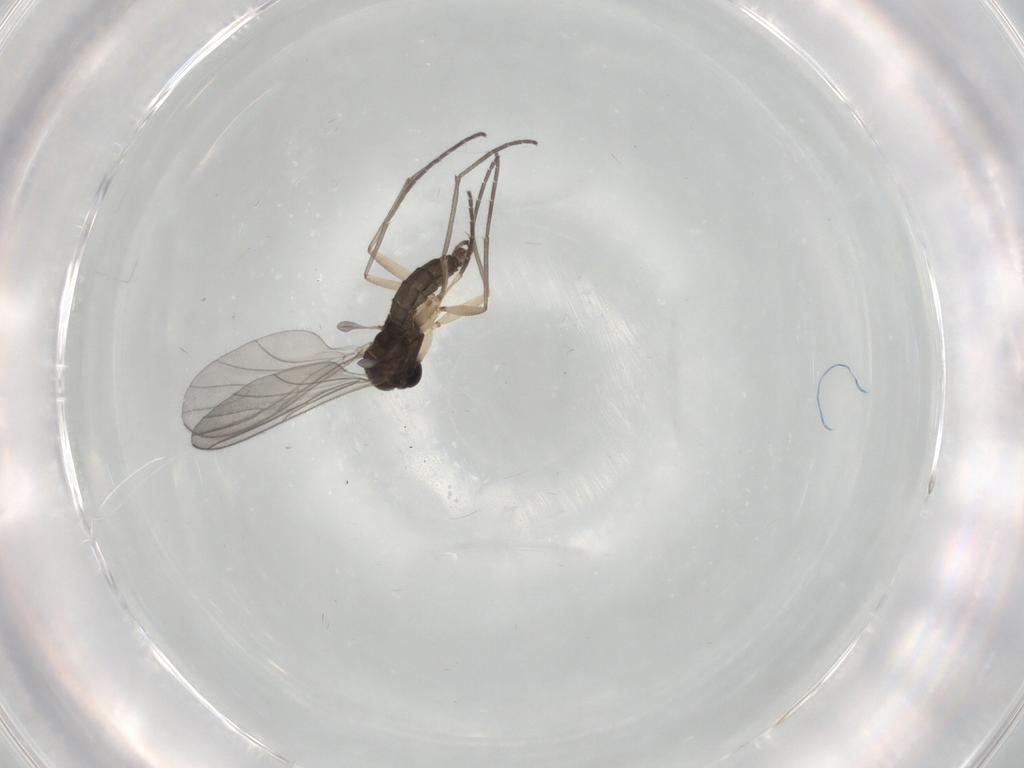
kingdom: Animalia
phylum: Arthropoda
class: Insecta
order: Diptera
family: Sciaridae
